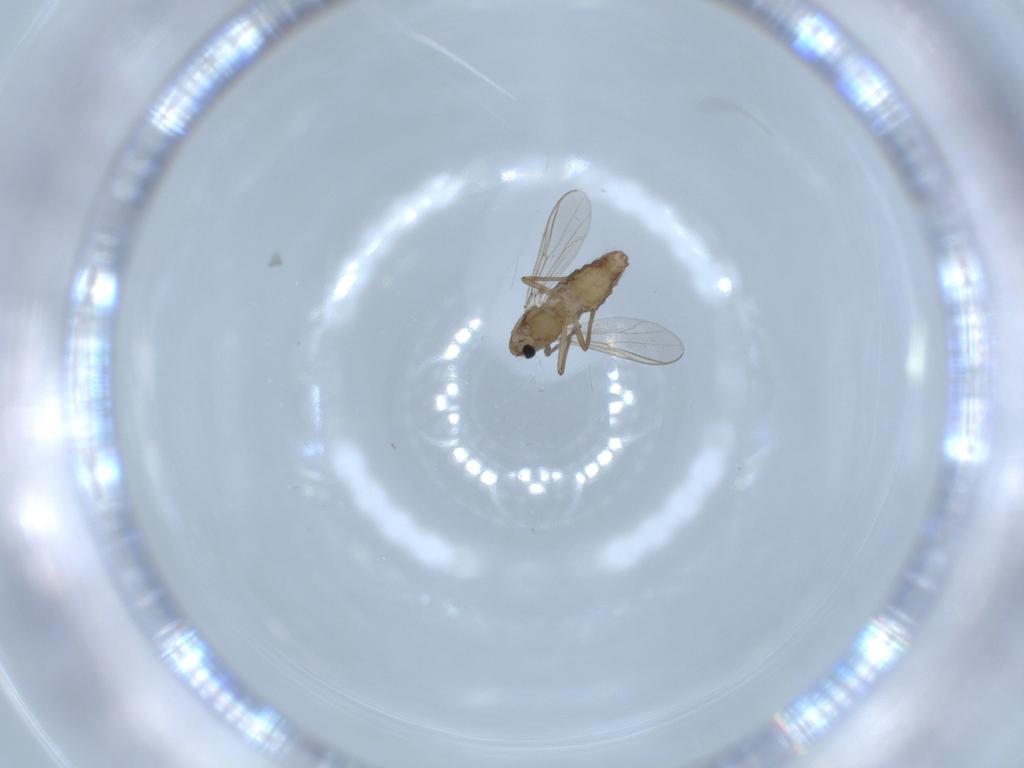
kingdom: Animalia
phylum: Arthropoda
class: Insecta
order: Diptera
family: Chironomidae
